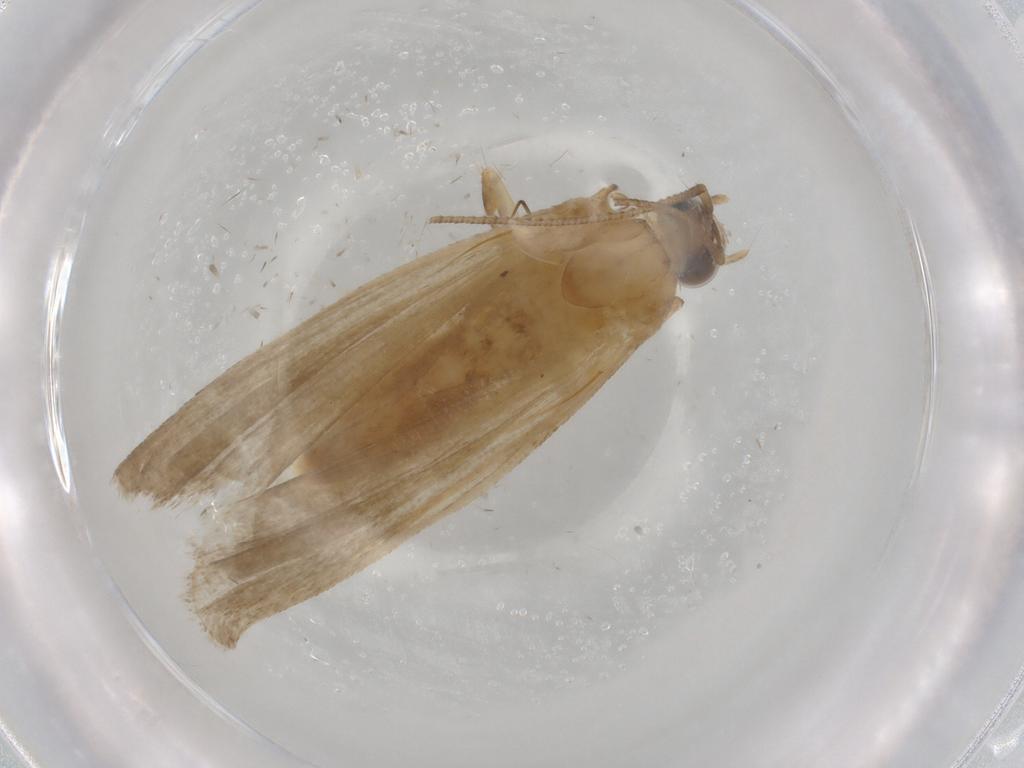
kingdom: Animalia
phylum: Arthropoda
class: Insecta
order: Lepidoptera
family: Noctuidae
